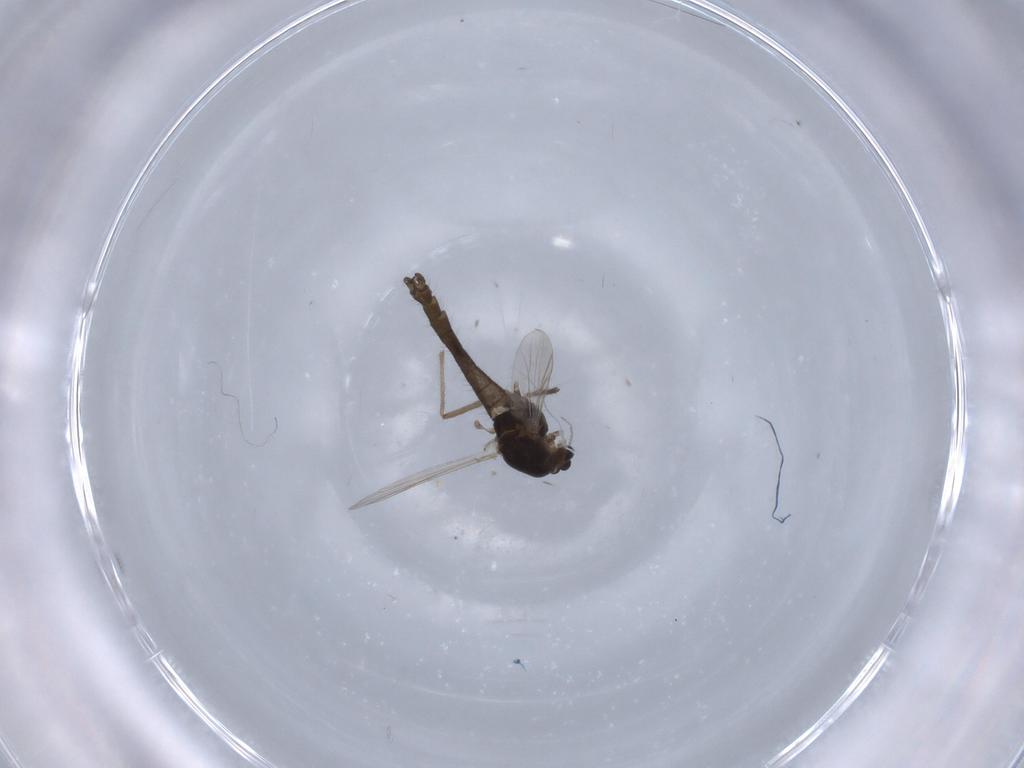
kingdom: Animalia
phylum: Arthropoda
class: Insecta
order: Diptera
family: Chironomidae
